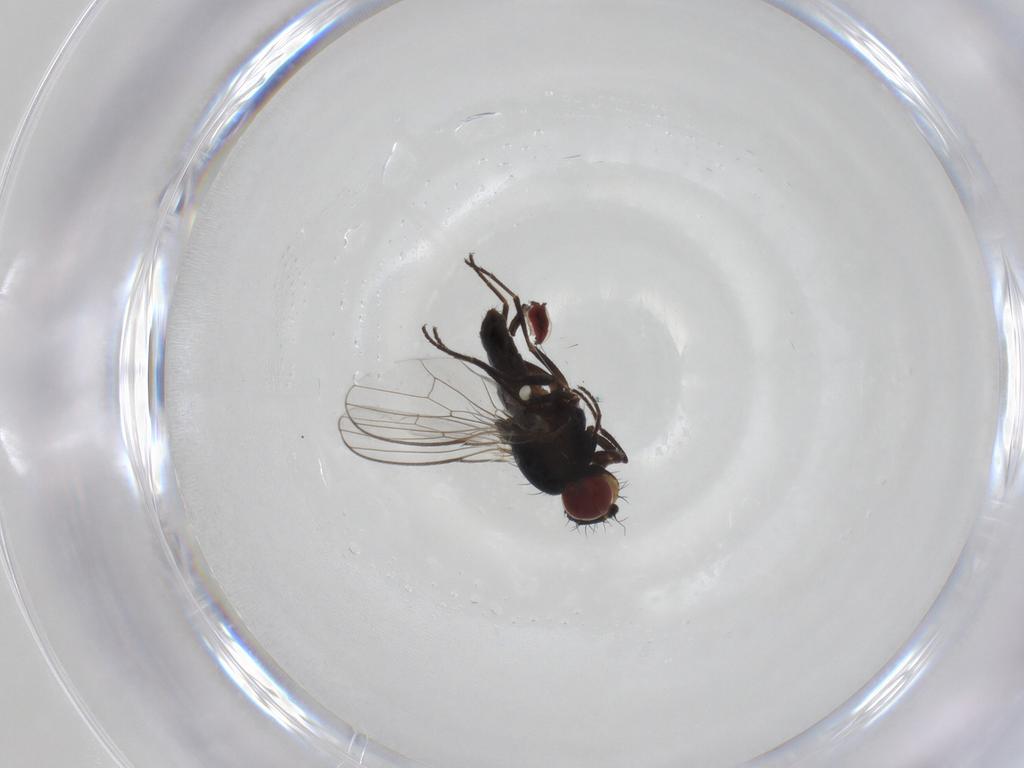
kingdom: Animalia
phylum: Arthropoda
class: Insecta
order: Diptera
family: Carnidae
